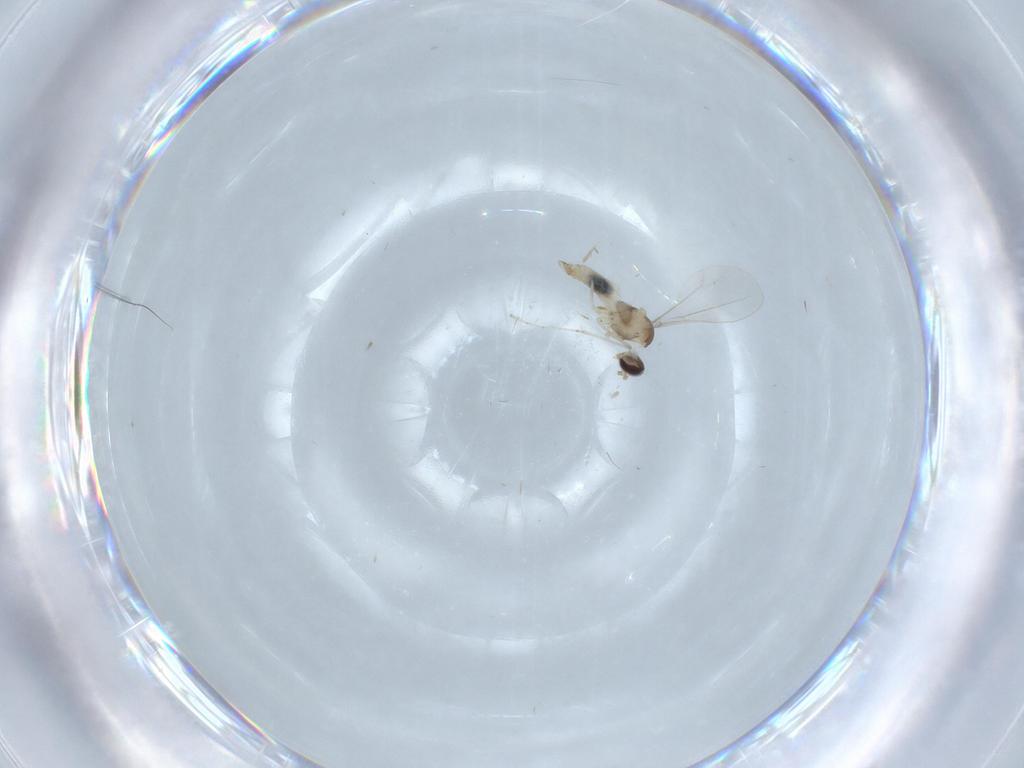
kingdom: Animalia
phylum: Arthropoda
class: Insecta
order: Diptera
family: Cecidomyiidae
